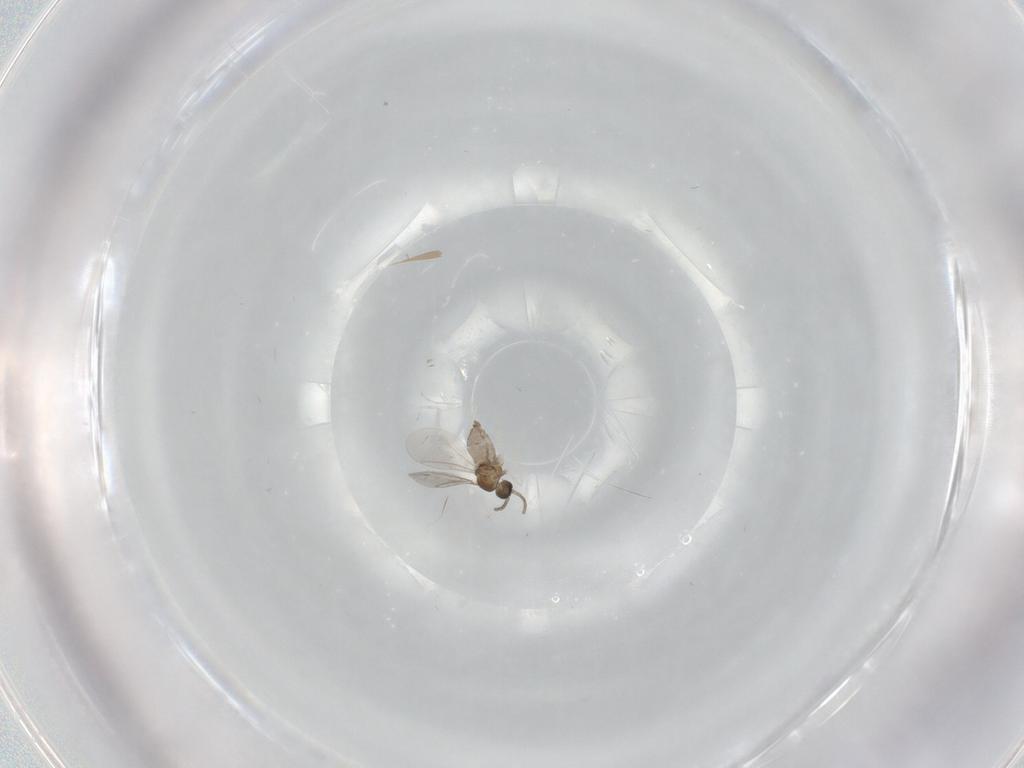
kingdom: Animalia
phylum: Arthropoda
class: Insecta
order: Diptera
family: Cecidomyiidae
